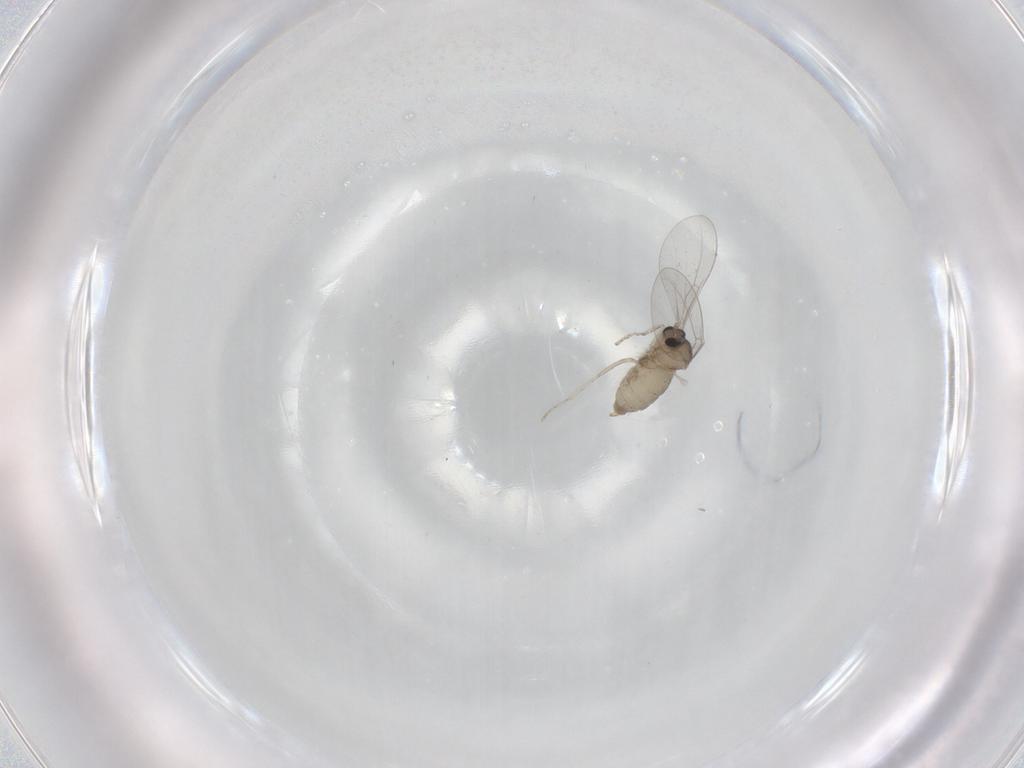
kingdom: Animalia
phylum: Arthropoda
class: Insecta
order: Diptera
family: Cecidomyiidae
